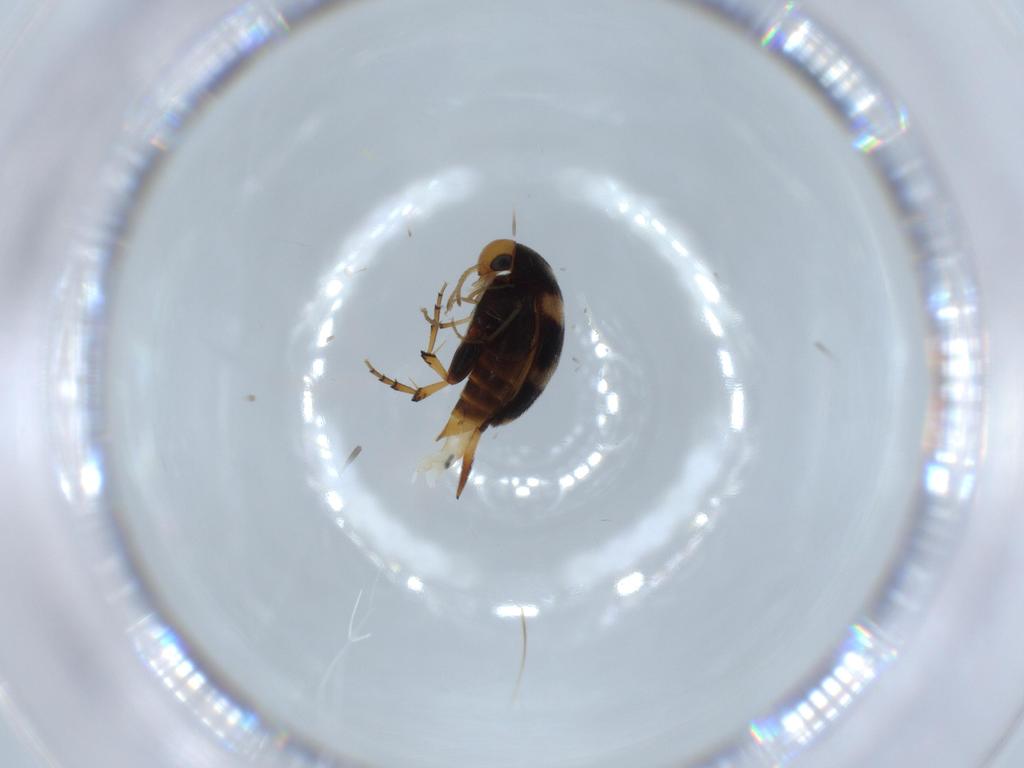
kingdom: Animalia
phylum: Arthropoda
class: Insecta
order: Coleoptera
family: Mordellidae
